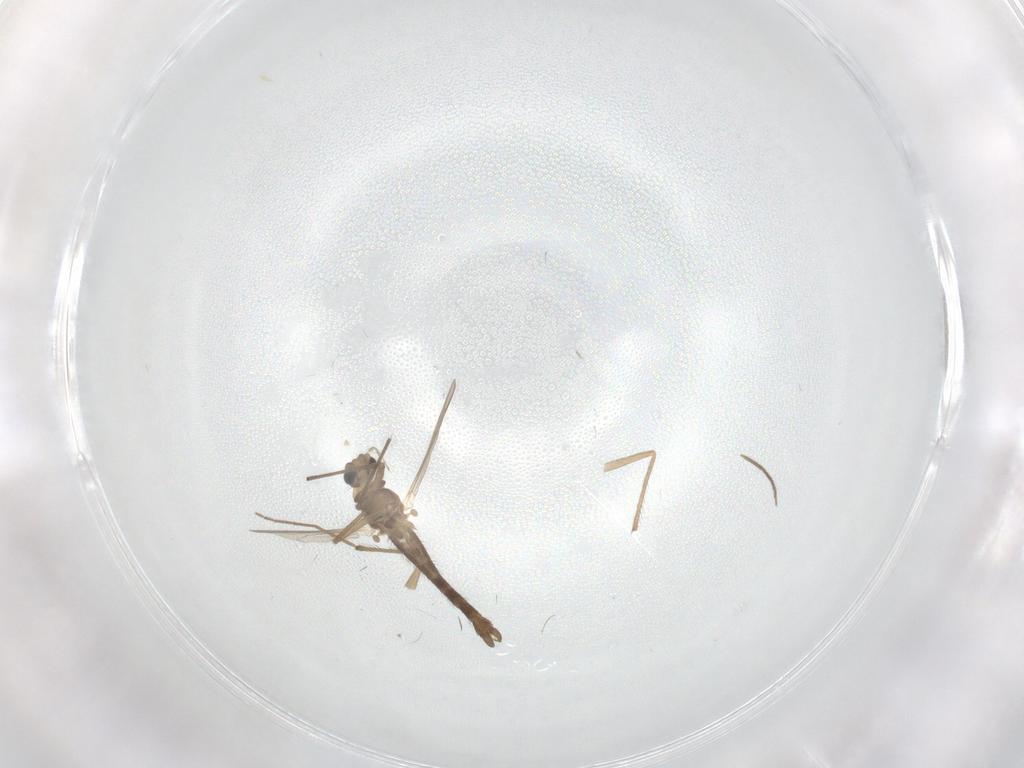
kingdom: Animalia
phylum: Arthropoda
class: Insecta
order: Diptera
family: Chironomidae
